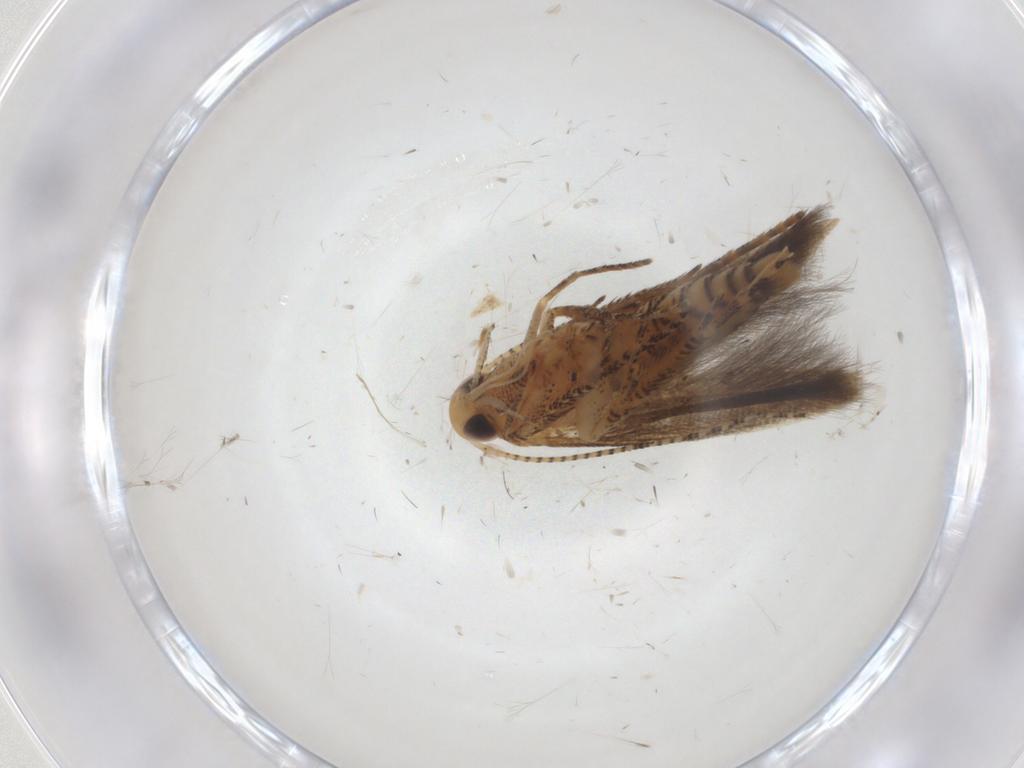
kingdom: Animalia
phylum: Arthropoda
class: Insecta
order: Lepidoptera
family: Gelechiidae
